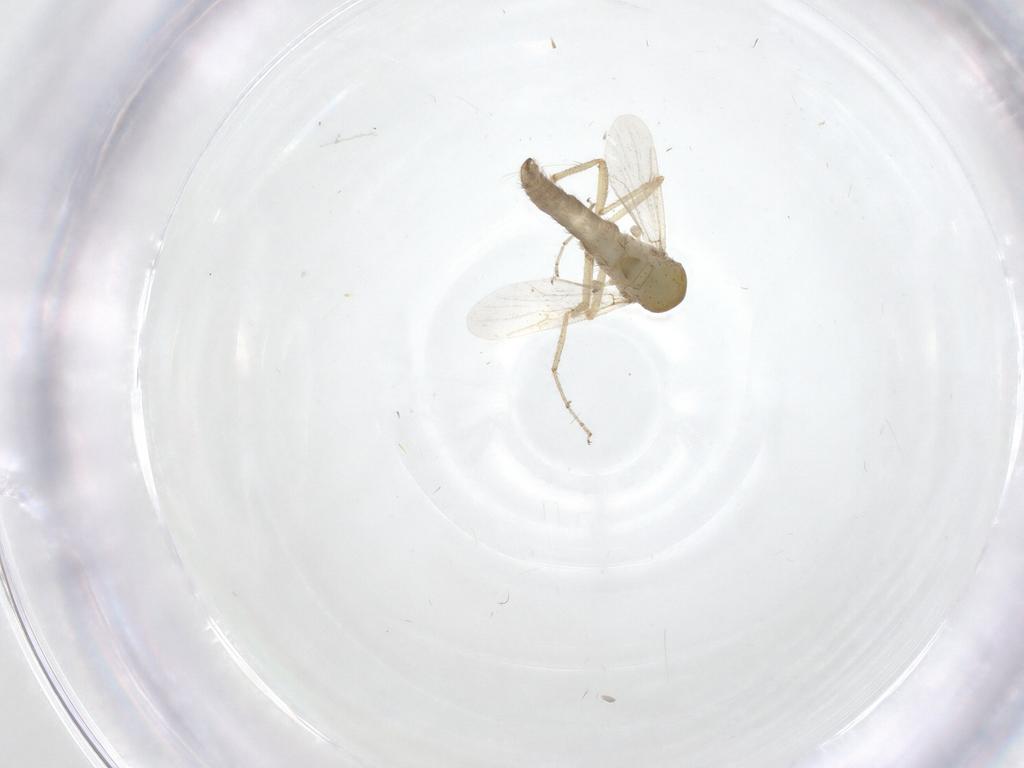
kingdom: Animalia
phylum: Arthropoda
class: Insecta
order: Diptera
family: Ceratopogonidae
